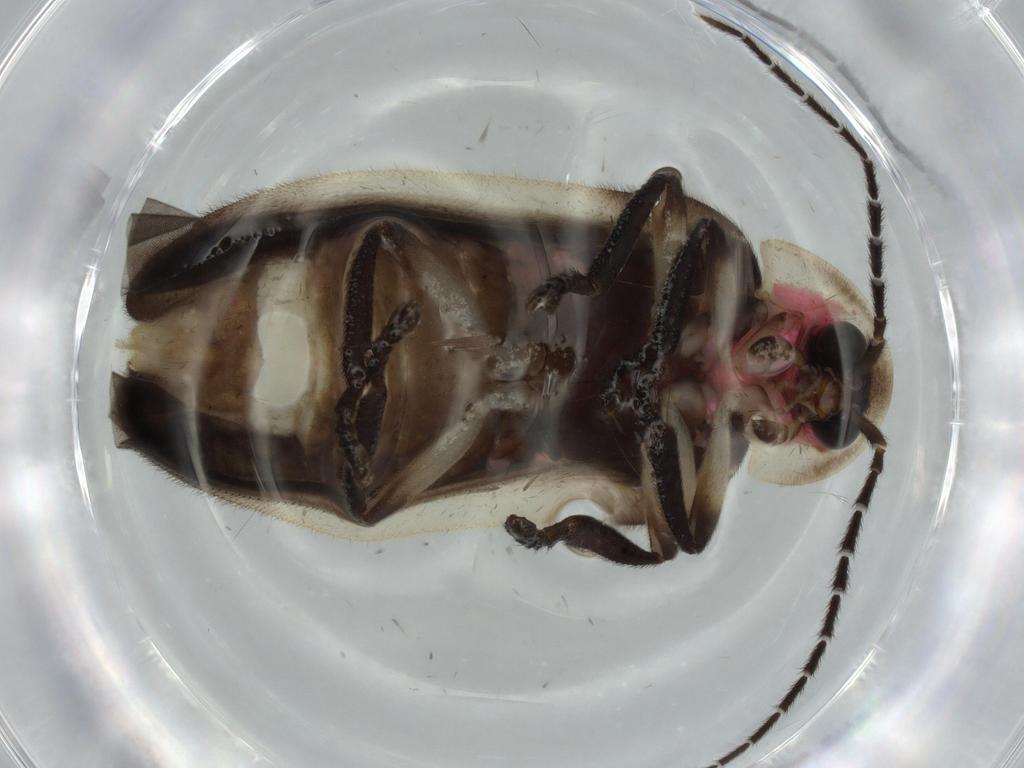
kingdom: Animalia
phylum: Arthropoda
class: Insecta
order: Coleoptera
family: Lampyridae
